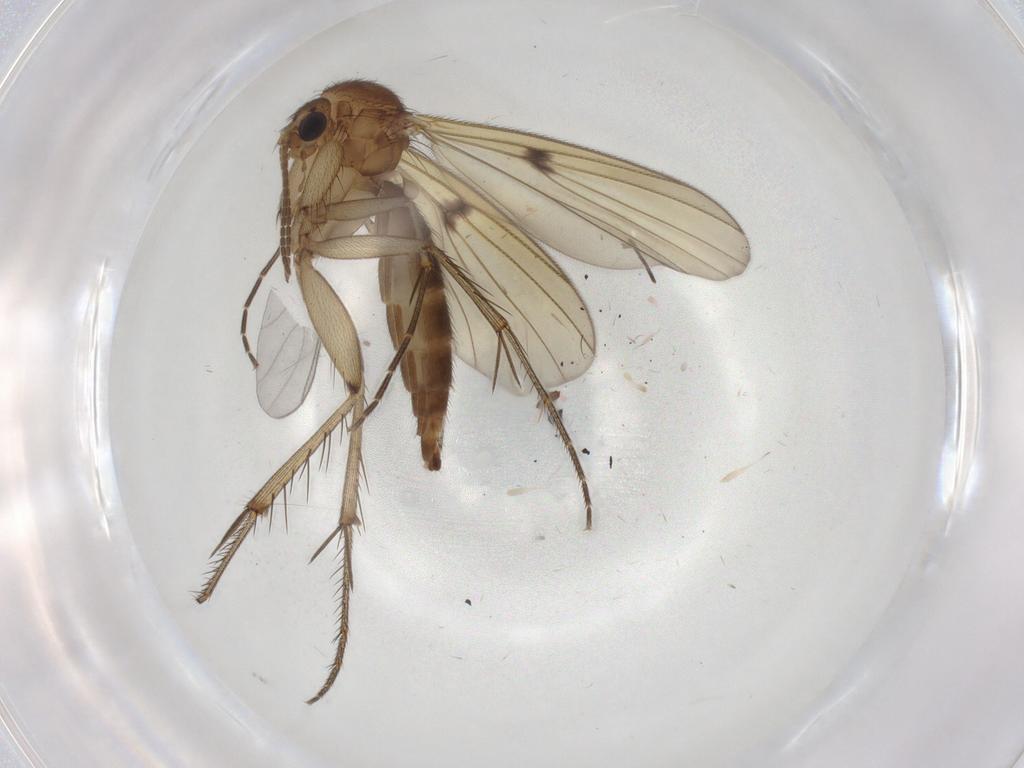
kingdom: Animalia
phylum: Arthropoda
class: Insecta
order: Diptera
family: Mycetophilidae
